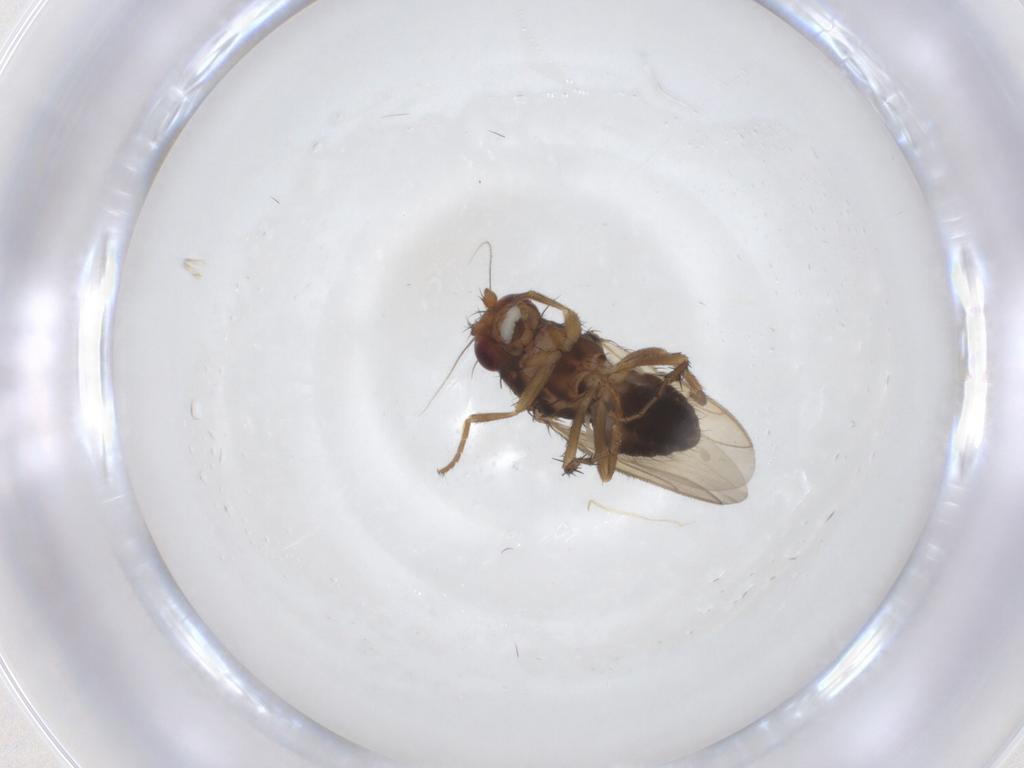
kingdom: Animalia
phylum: Arthropoda
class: Insecta
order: Diptera
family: Sphaeroceridae
